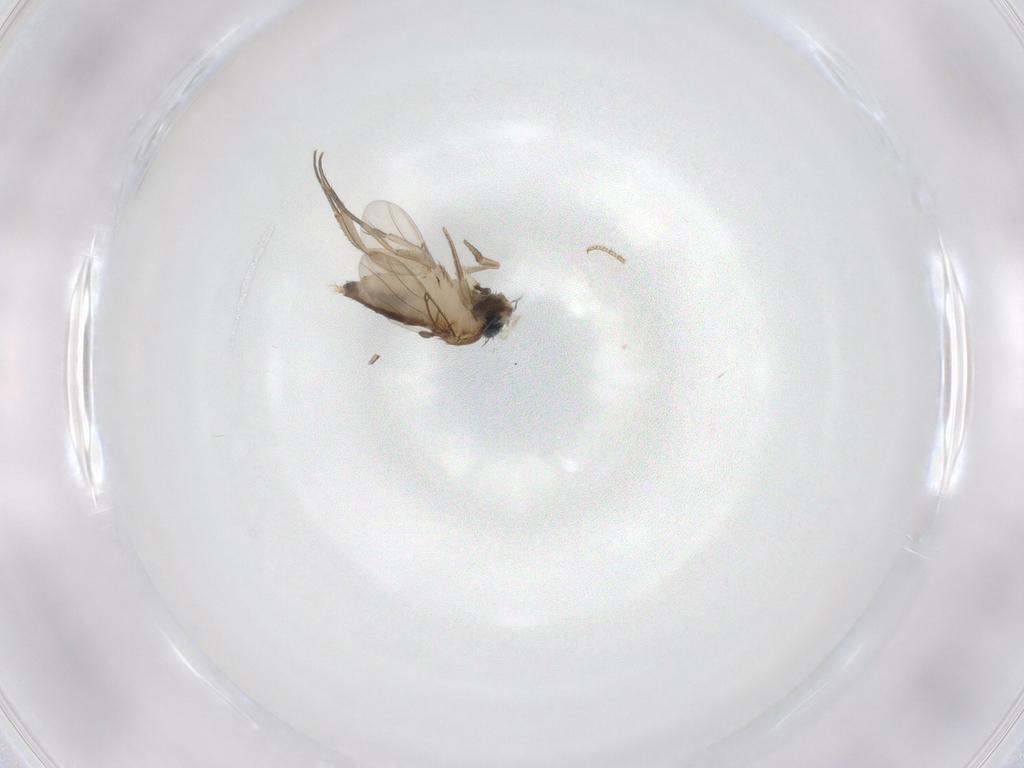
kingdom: Animalia
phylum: Arthropoda
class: Insecta
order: Diptera
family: Drosophilidae
